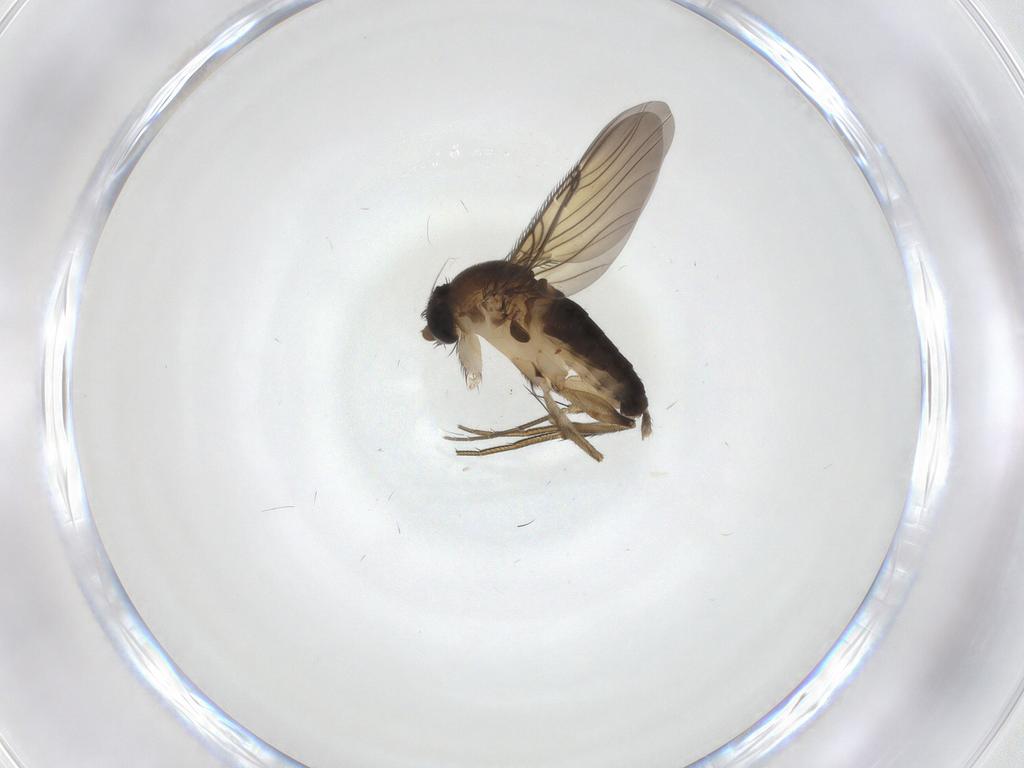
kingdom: Animalia
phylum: Arthropoda
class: Insecta
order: Diptera
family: Chironomidae
